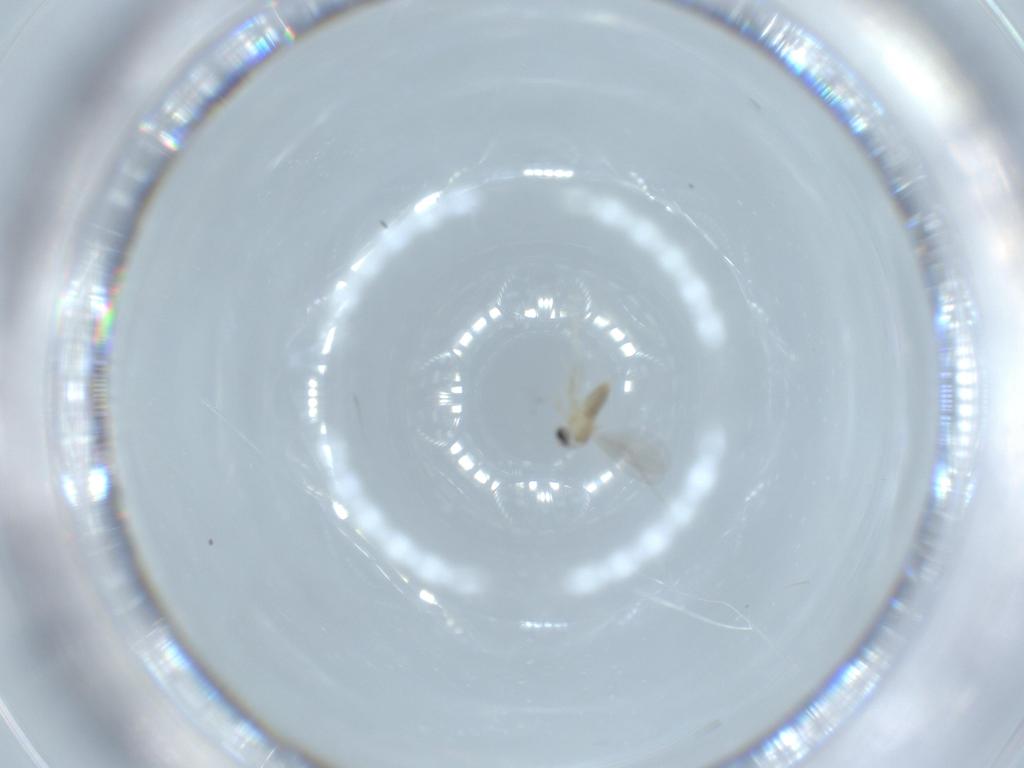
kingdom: Animalia
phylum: Arthropoda
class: Insecta
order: Diptera
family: Cecidomyiidae
